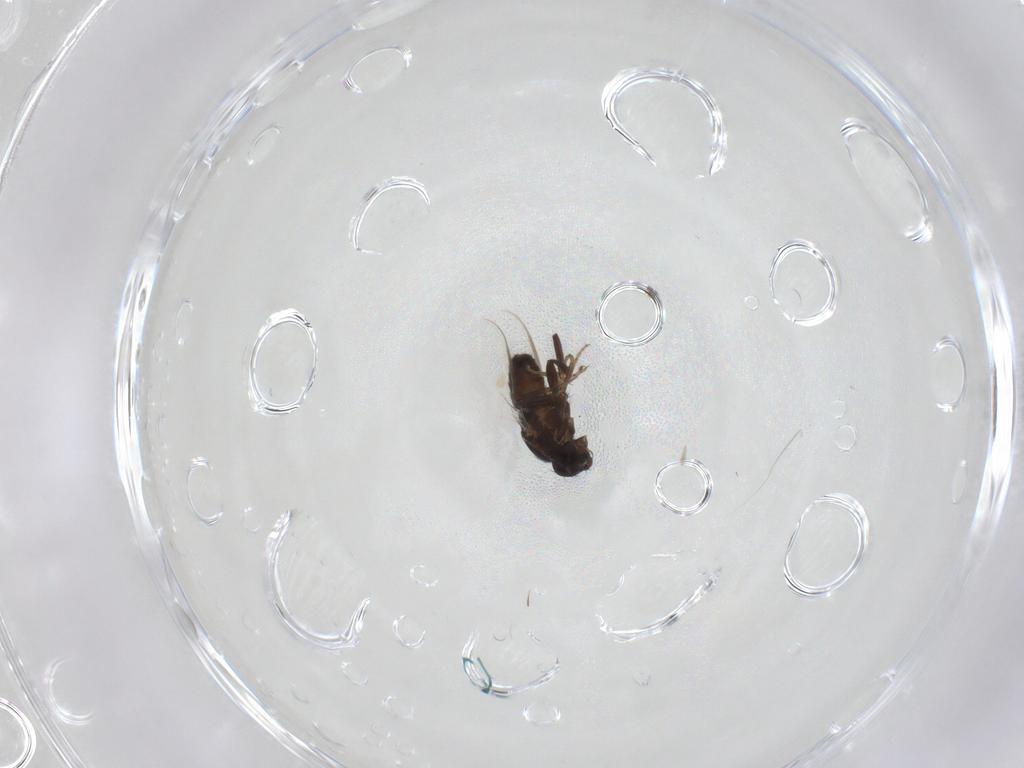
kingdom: Animalia
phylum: Arthropoda
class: Insecta
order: Diptera
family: Sphaeroceridae
